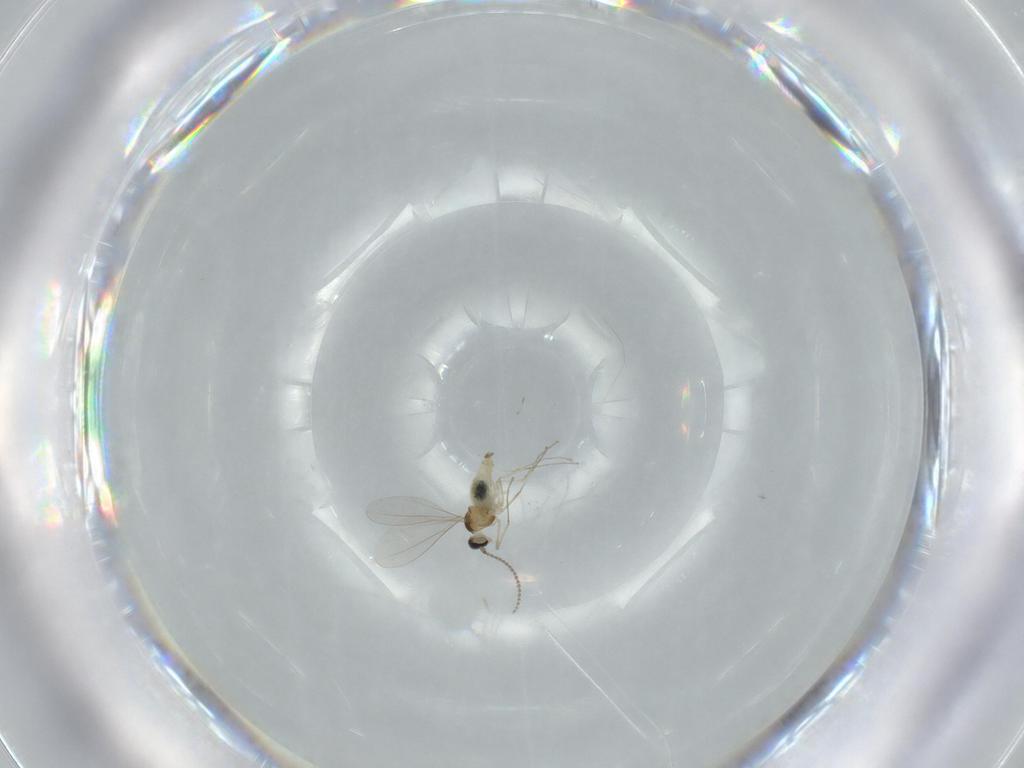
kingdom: Animalia
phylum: Arthropoda
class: Insecta
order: Diptera
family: Cecidomyiidae
